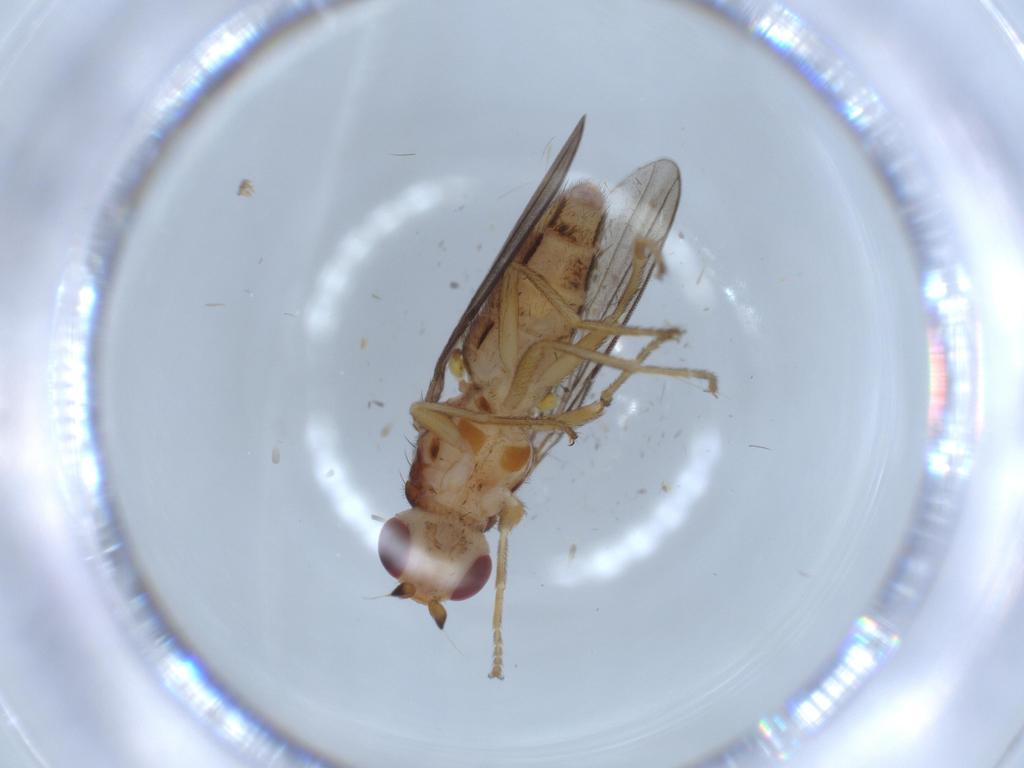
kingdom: Animalia
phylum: Arthropoda
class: Insecta
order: Diptera
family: Chloropidae
